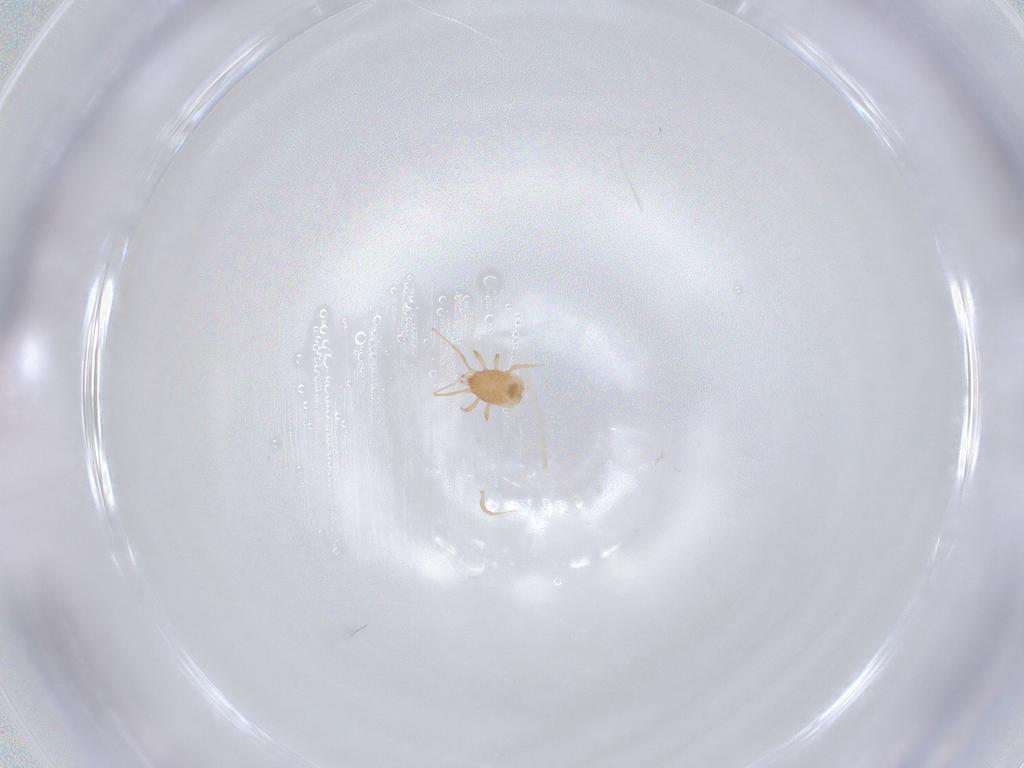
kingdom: Animalia
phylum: Arthropoda
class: Arachnida
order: Mesostigmata
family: Blattisociidae
